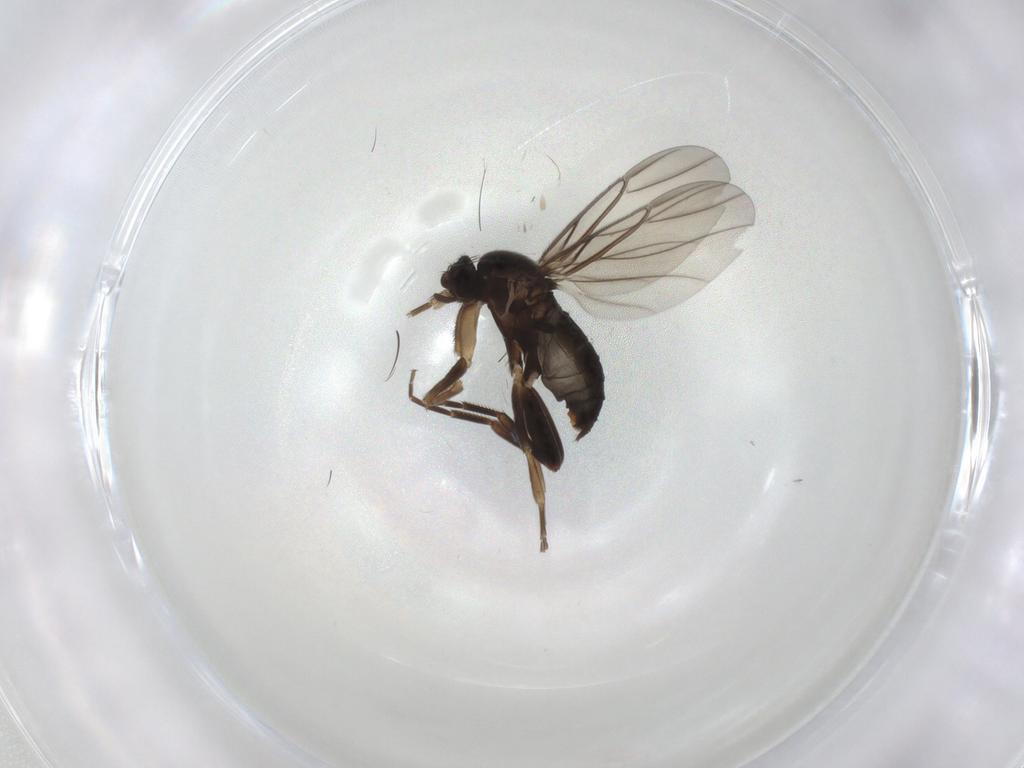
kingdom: Animalia
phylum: Arthropoda
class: Insecta
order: Diptera
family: Phoridae
